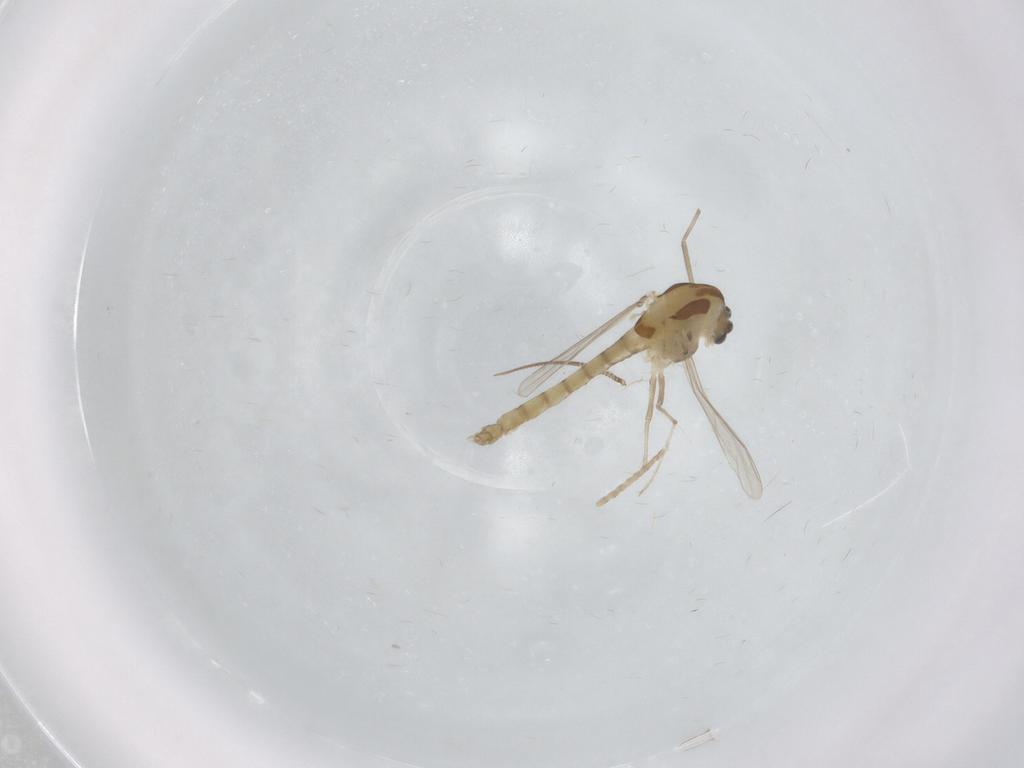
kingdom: Animalia
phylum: Arthropoda
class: Insecta
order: Diptera
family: Chironomidae
